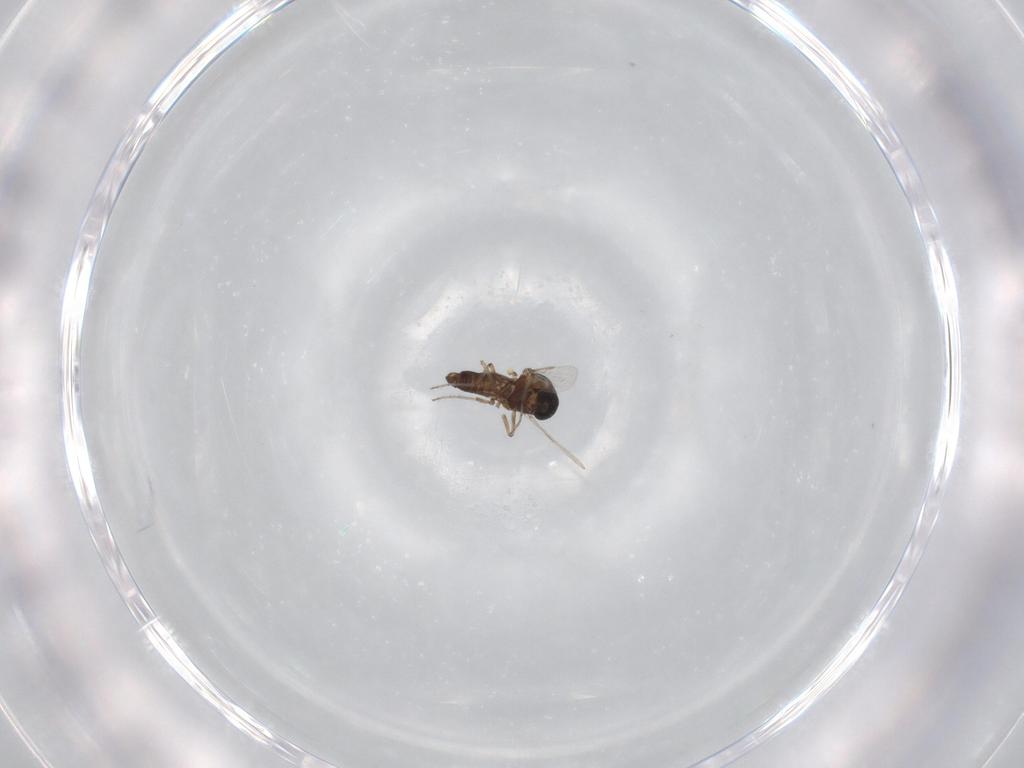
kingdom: Animalia
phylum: Arthropoda
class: Insecta
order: Diptera
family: Ceratopogonidae
